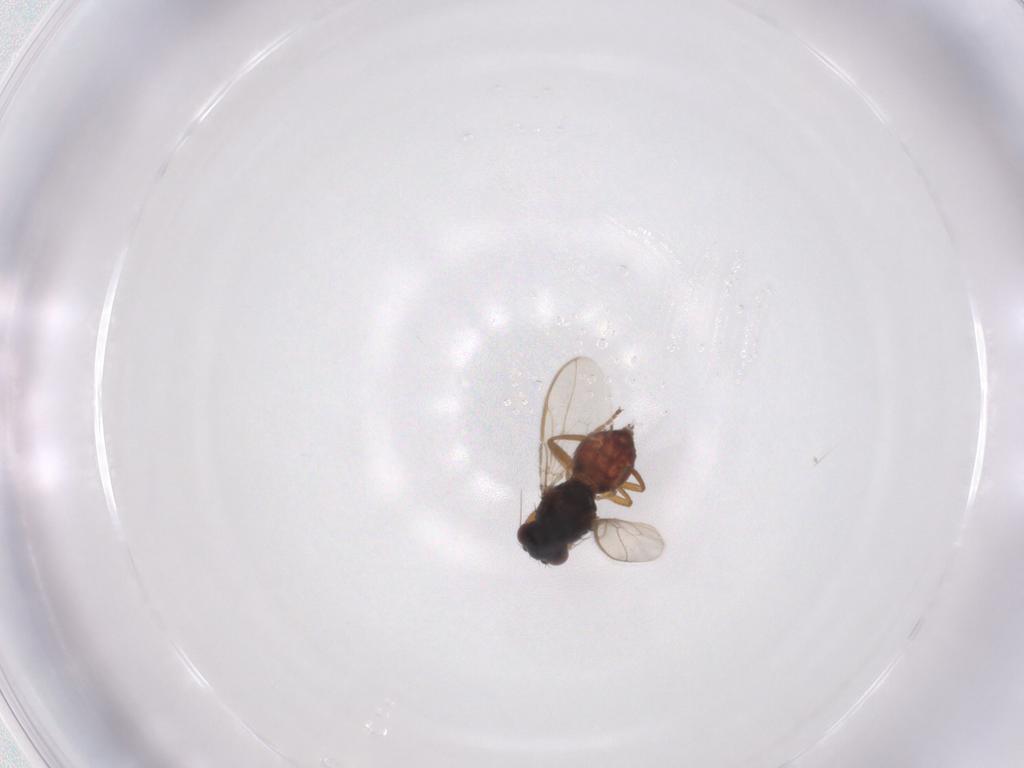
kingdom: Animalia
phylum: Arthropoda
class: Insecta
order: Diptera
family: Sphaeroceridae
